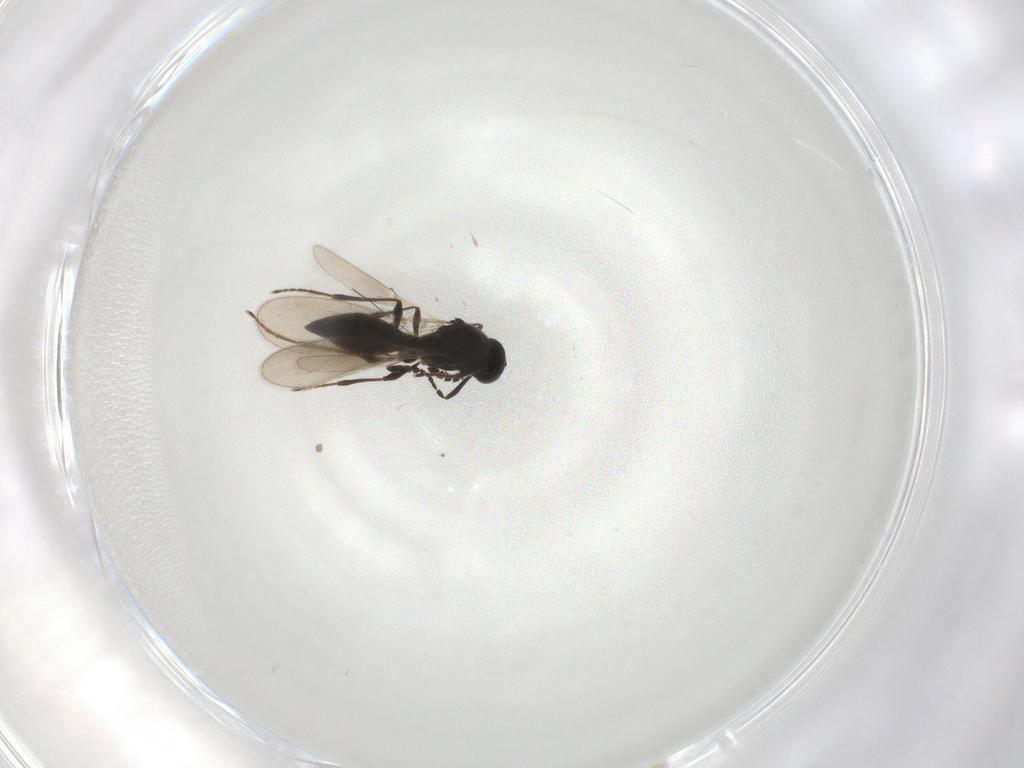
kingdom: Animalia
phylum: Arthropoda
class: Insecta
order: Hymenoptera
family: Platygastridae
